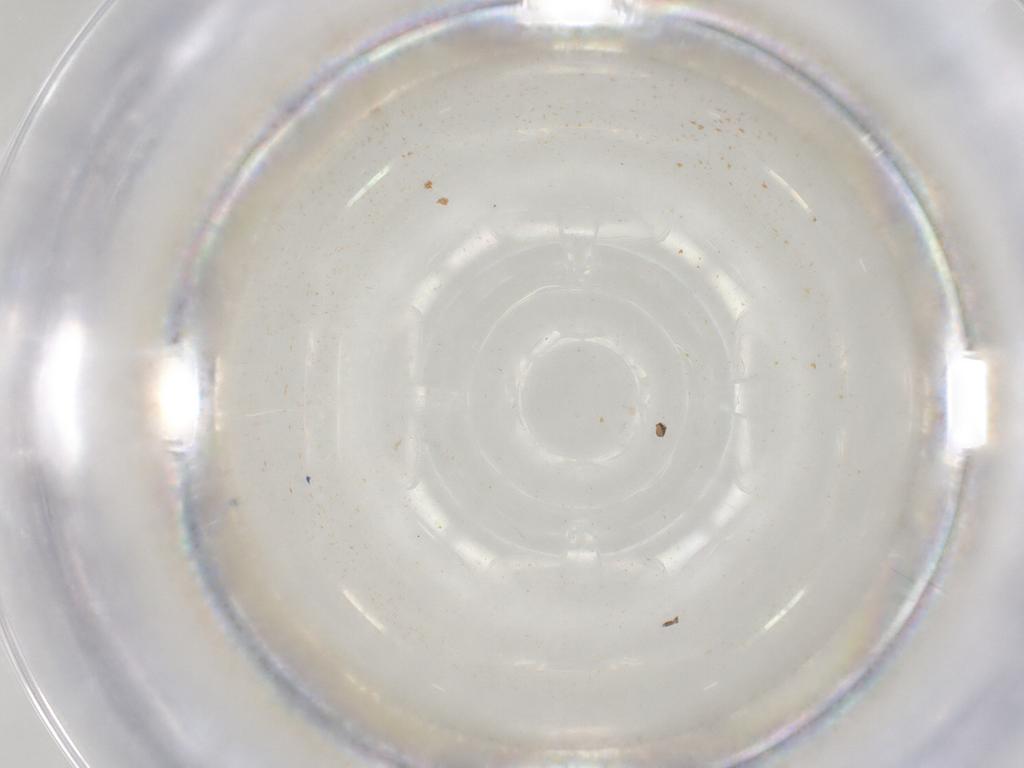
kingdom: Animalia
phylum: Arthropoda
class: Insecta
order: Diptera
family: Sciaridae
